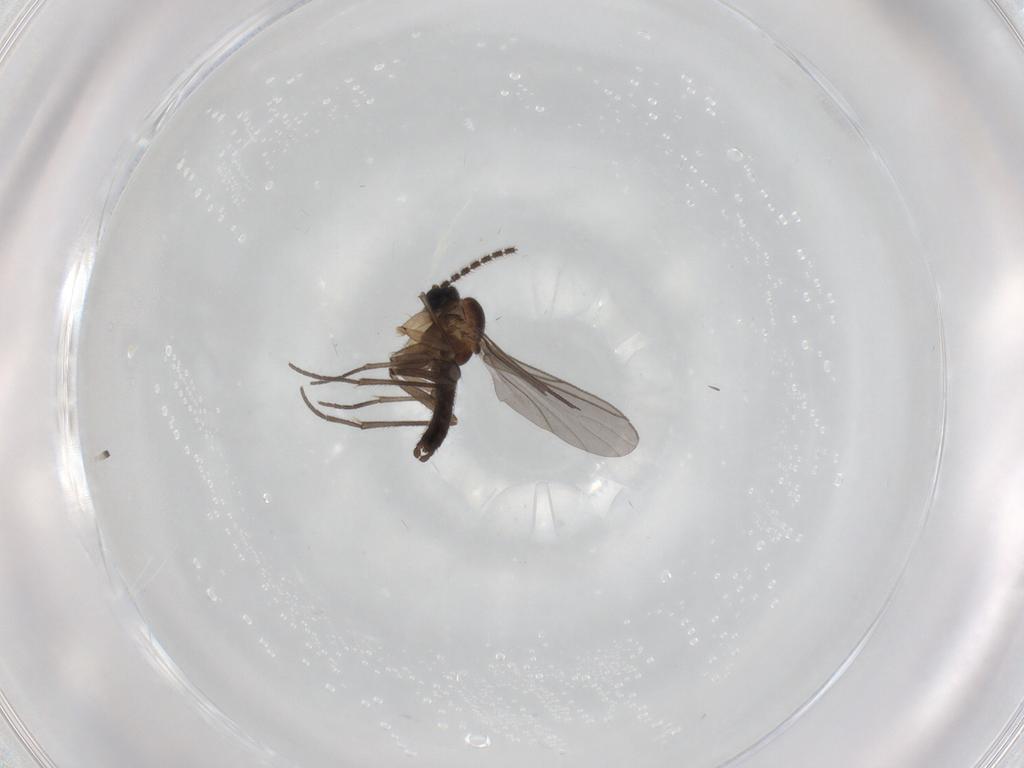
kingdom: Animalia
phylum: Arthropoda
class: Insecta
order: Diptera
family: Sciaridae
